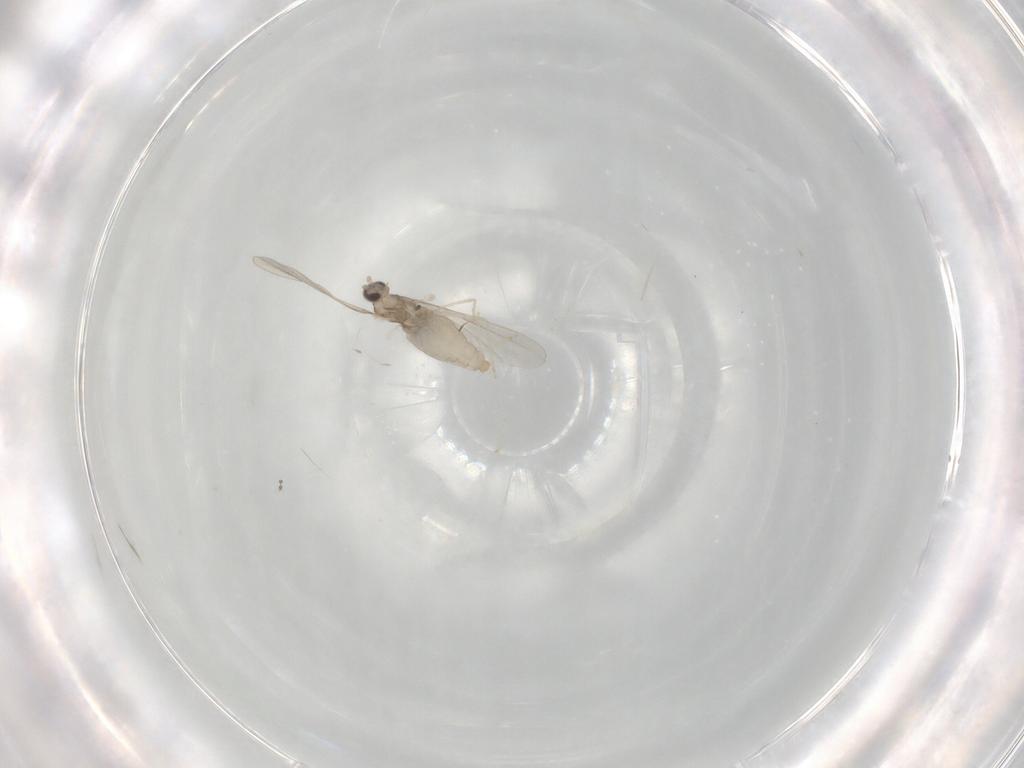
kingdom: Animalia
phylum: Arthropoda
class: Insecta
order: Diptera
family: Cecidomyiidae
